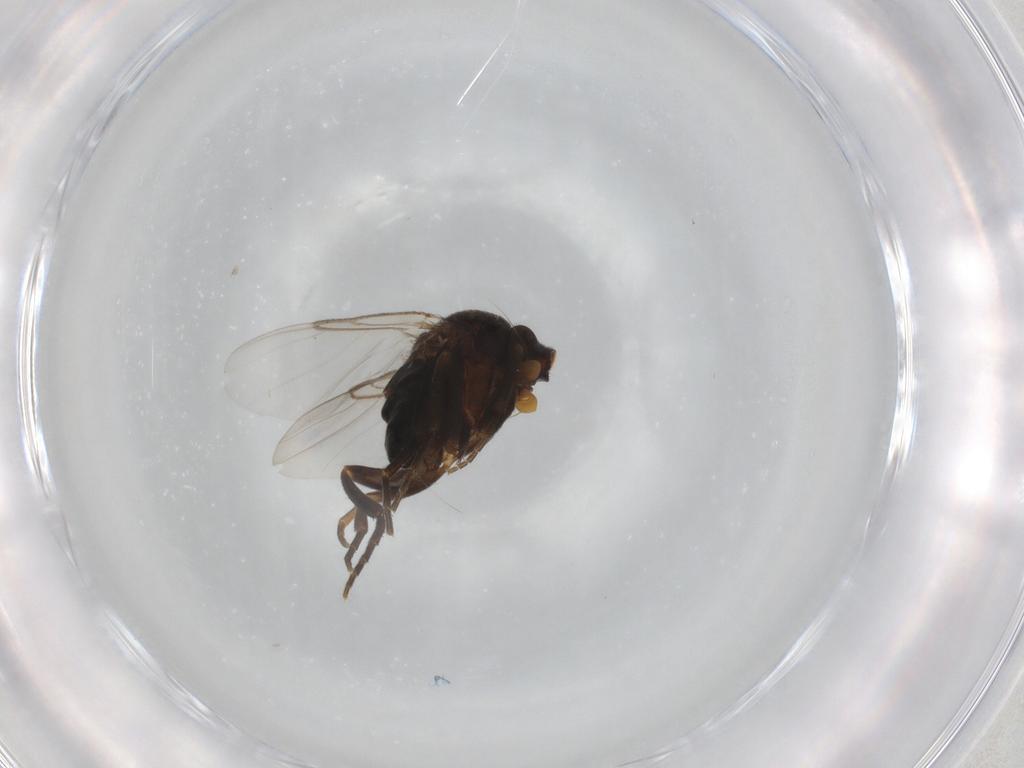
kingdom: Animalia
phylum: Arthropoda
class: Insecta
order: Diptera
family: Phoridae
